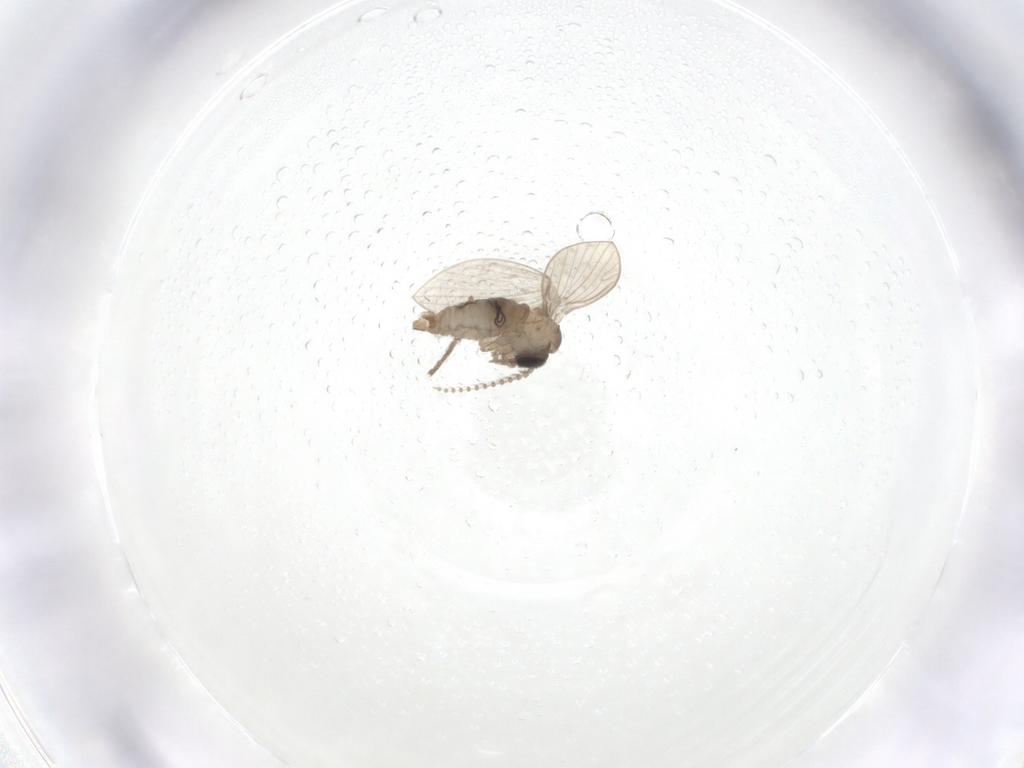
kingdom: Animalia
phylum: Arthropoda
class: Insecta
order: Diptera
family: Psychodidae
